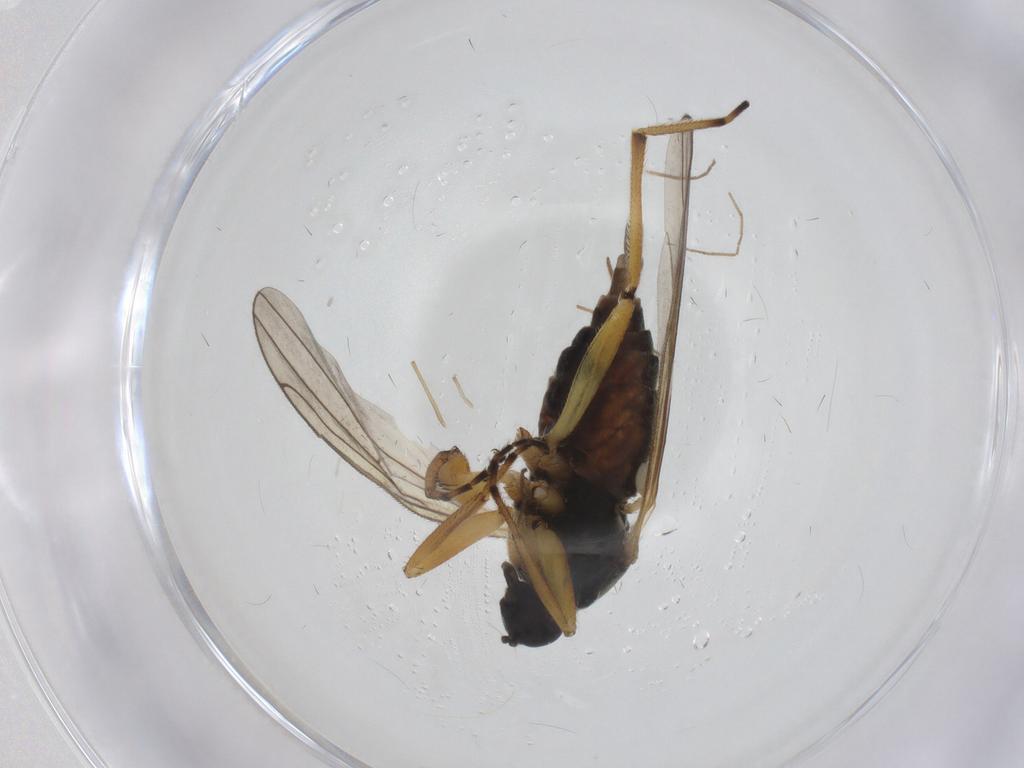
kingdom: Animalia
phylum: Arthropoda
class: Insecta
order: Diptera
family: Hybotidae
